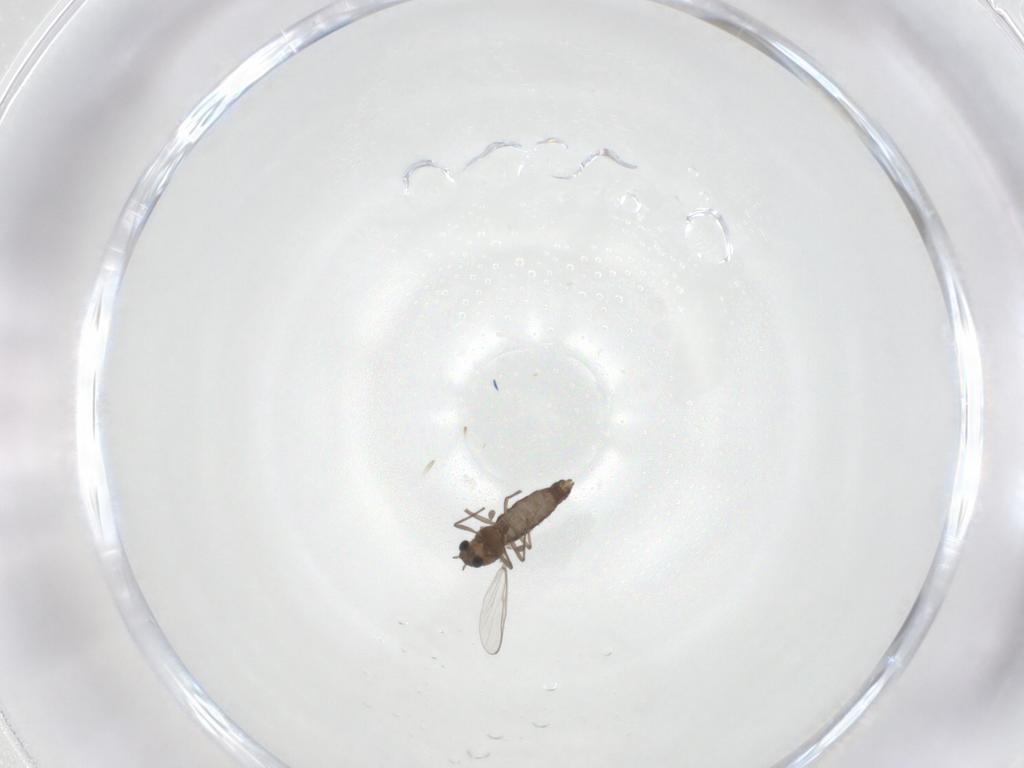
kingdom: Animalia
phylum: Arthropoda
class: Insecta
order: Diptera
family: Chironomidae
